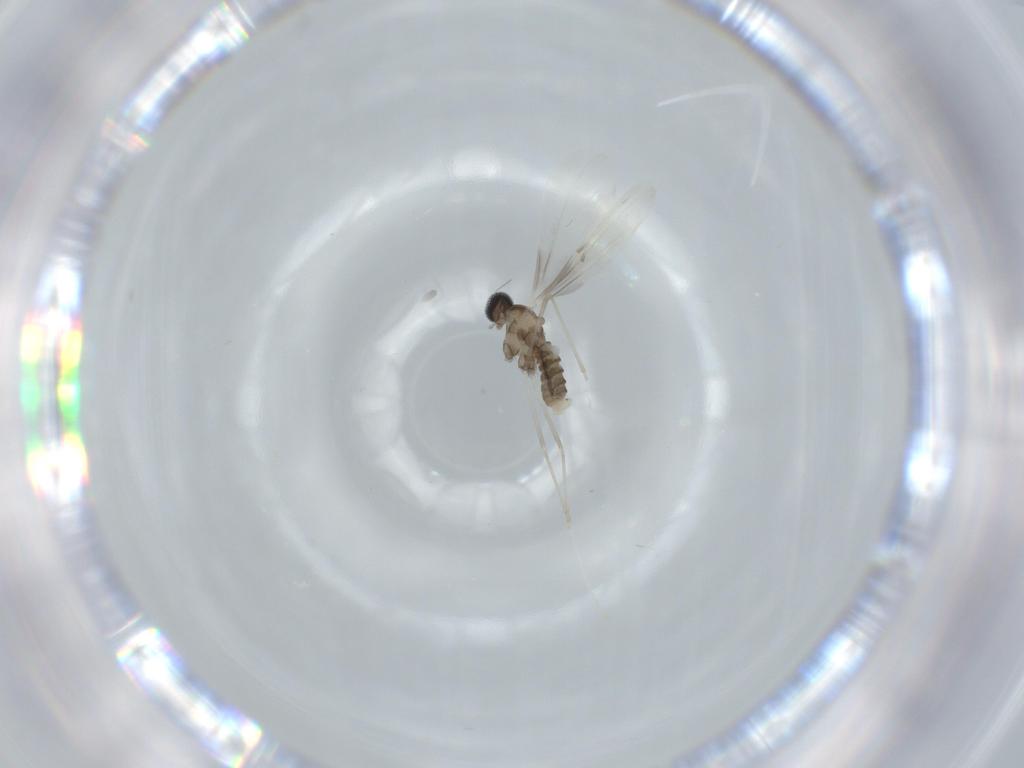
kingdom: Animalia
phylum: Arthropoda
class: Insecta
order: Diptera
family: Cecidomyiidae
